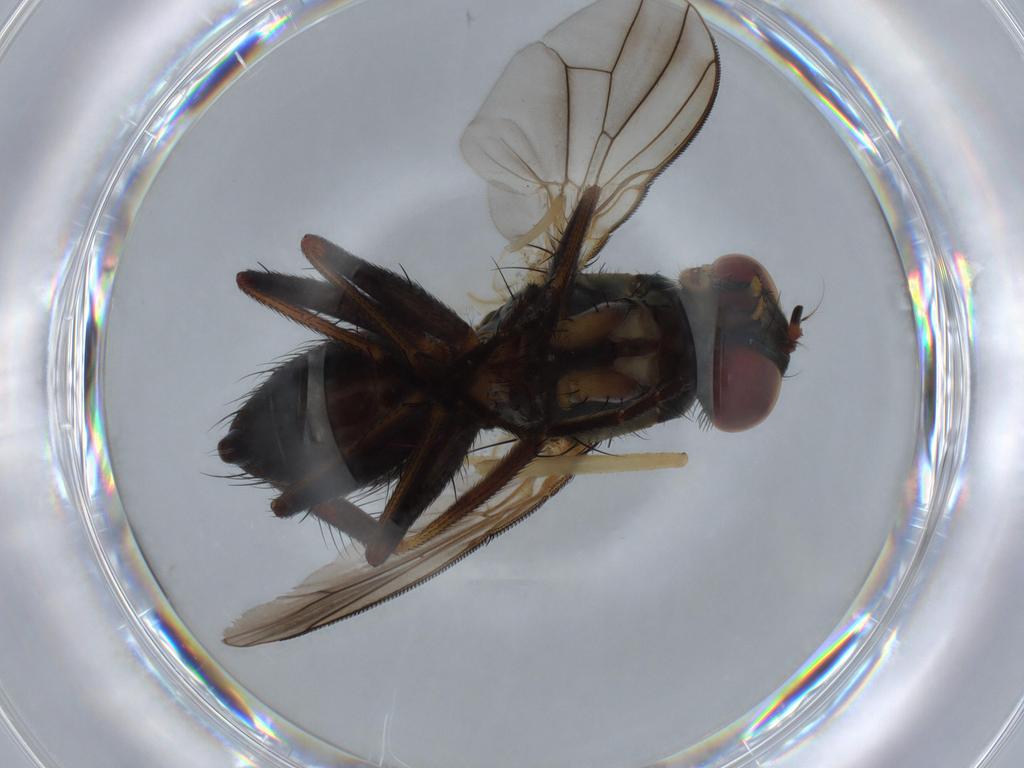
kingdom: Animalia
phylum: Arthropoda
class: Insecta
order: Diptera
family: Muscidae
